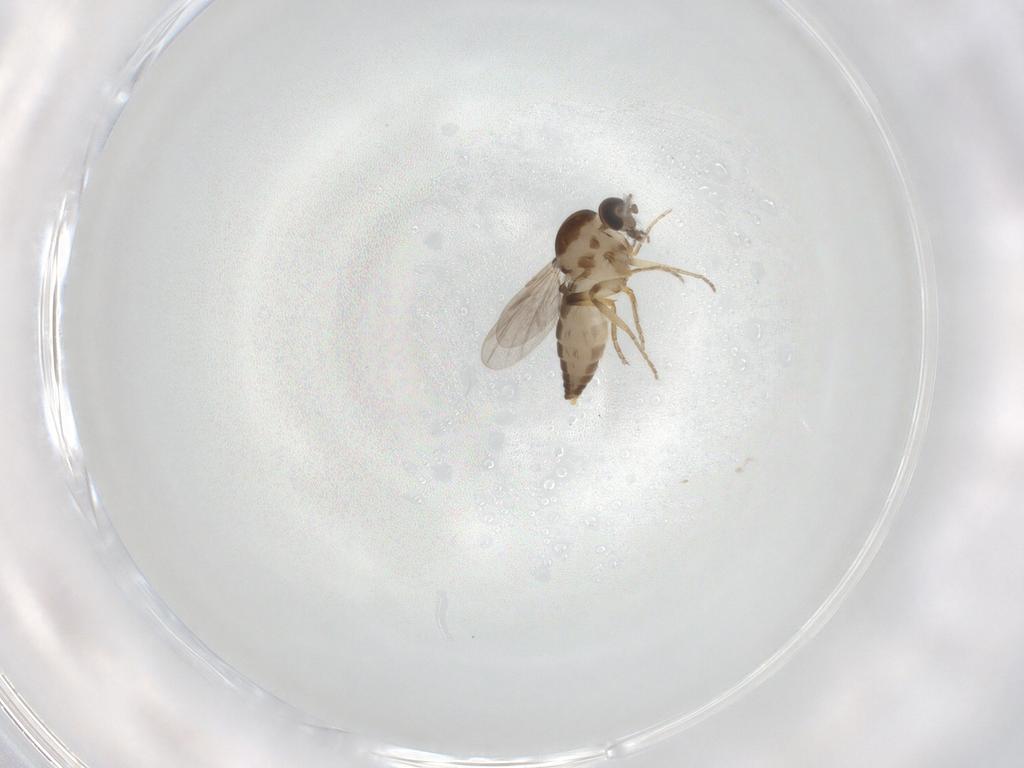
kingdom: Animalia
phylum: Arthropoda
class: Insecta
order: Diptera
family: Ceratopogonidae
